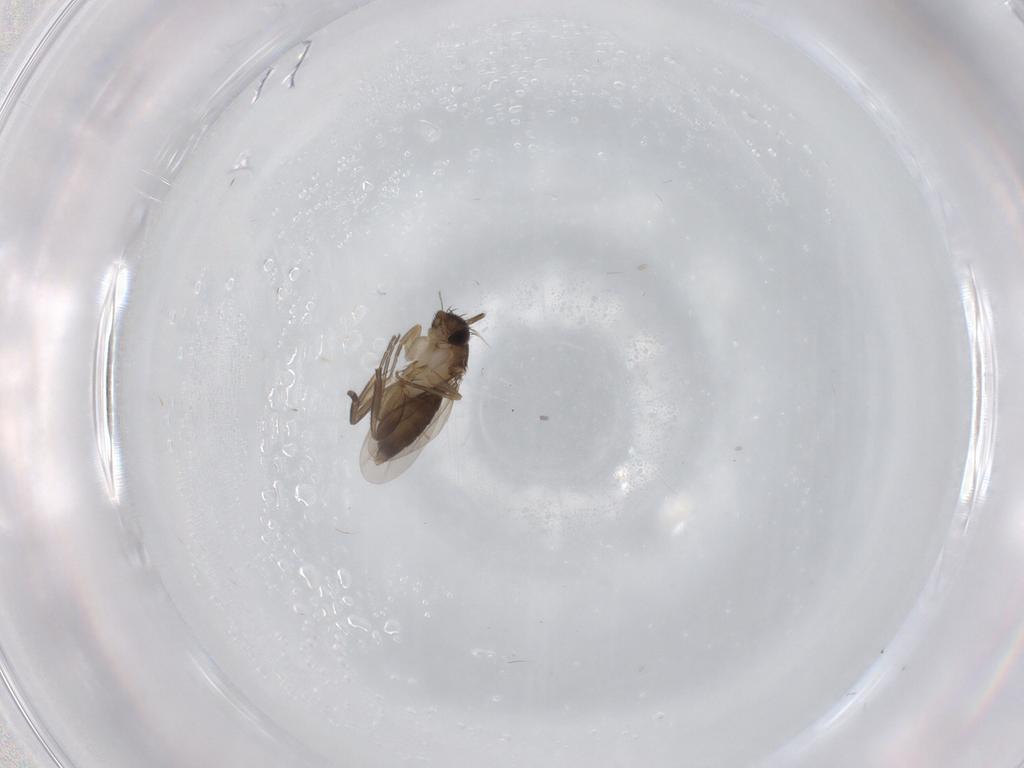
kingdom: Animalia
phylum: Arthropoda
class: Insecta
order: Diptera
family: Phoridae
